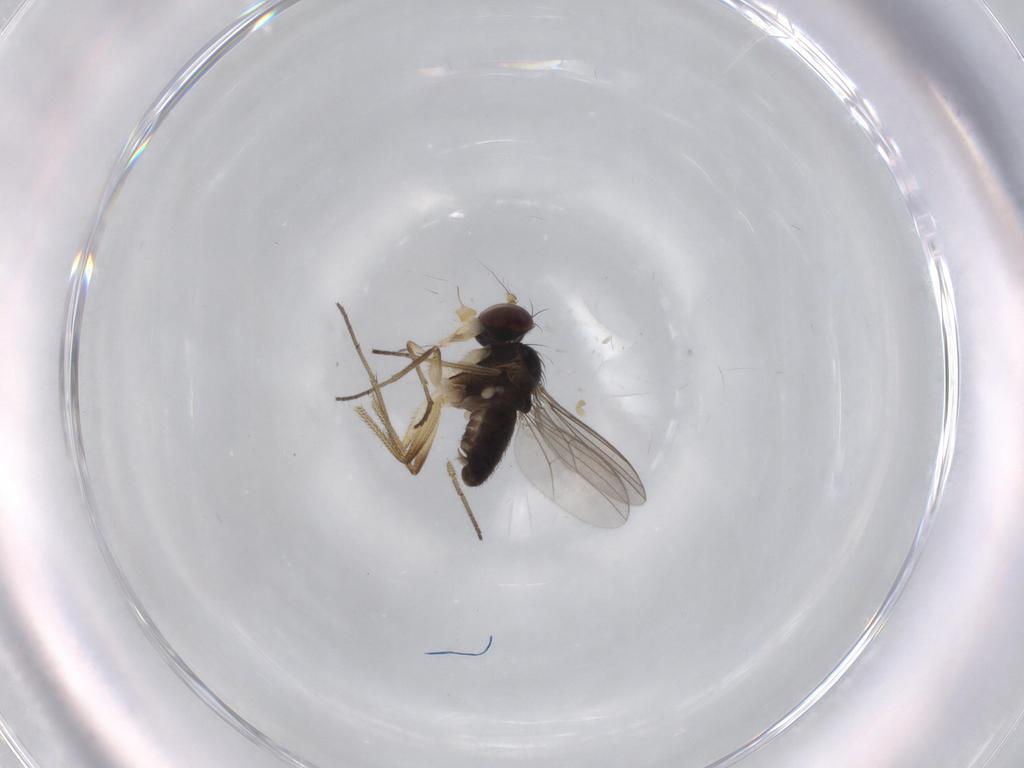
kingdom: Animalia
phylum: Arthropoda
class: Insecta
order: Diptera
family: Dolichopodidae
